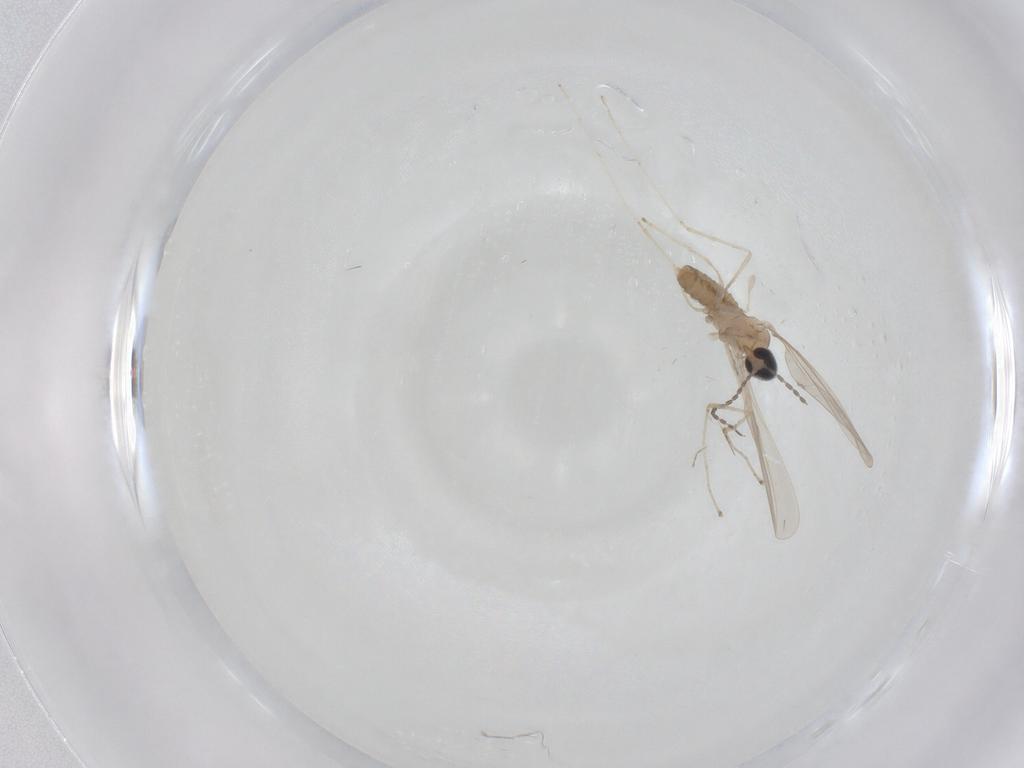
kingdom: Animalia
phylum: Arthropoda
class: Insecta
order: Diptera
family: Cecidomyiidae
